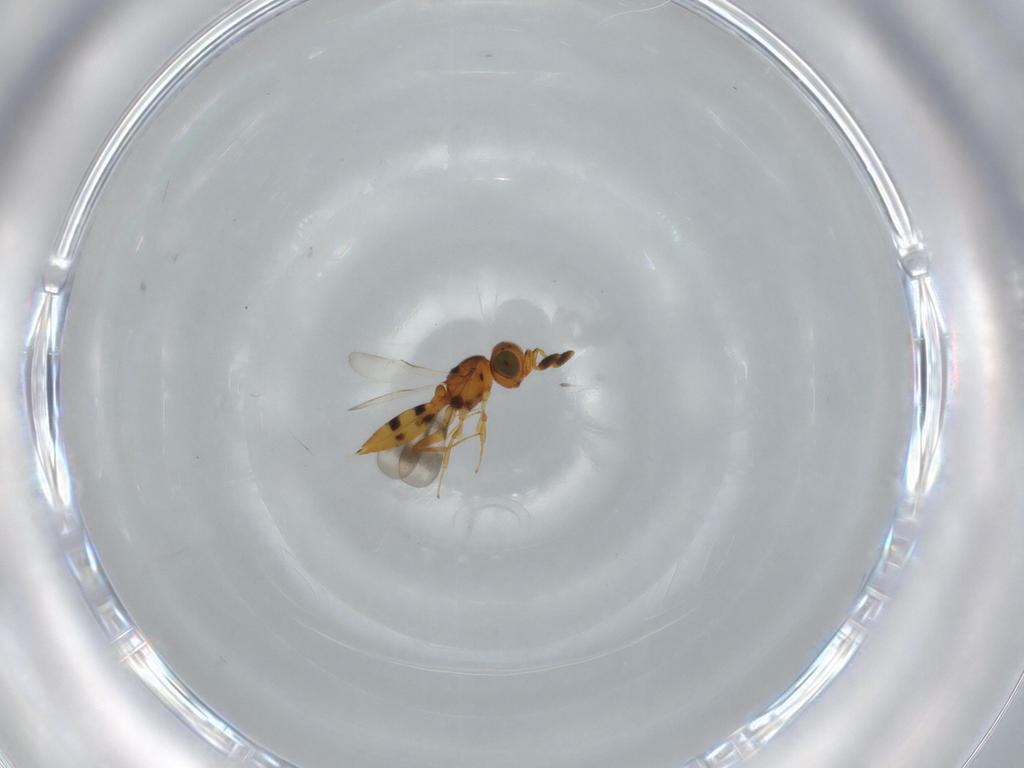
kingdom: Animalia
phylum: Arthropoda
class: Insecta
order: Hymenoptera
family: Scelionidae
